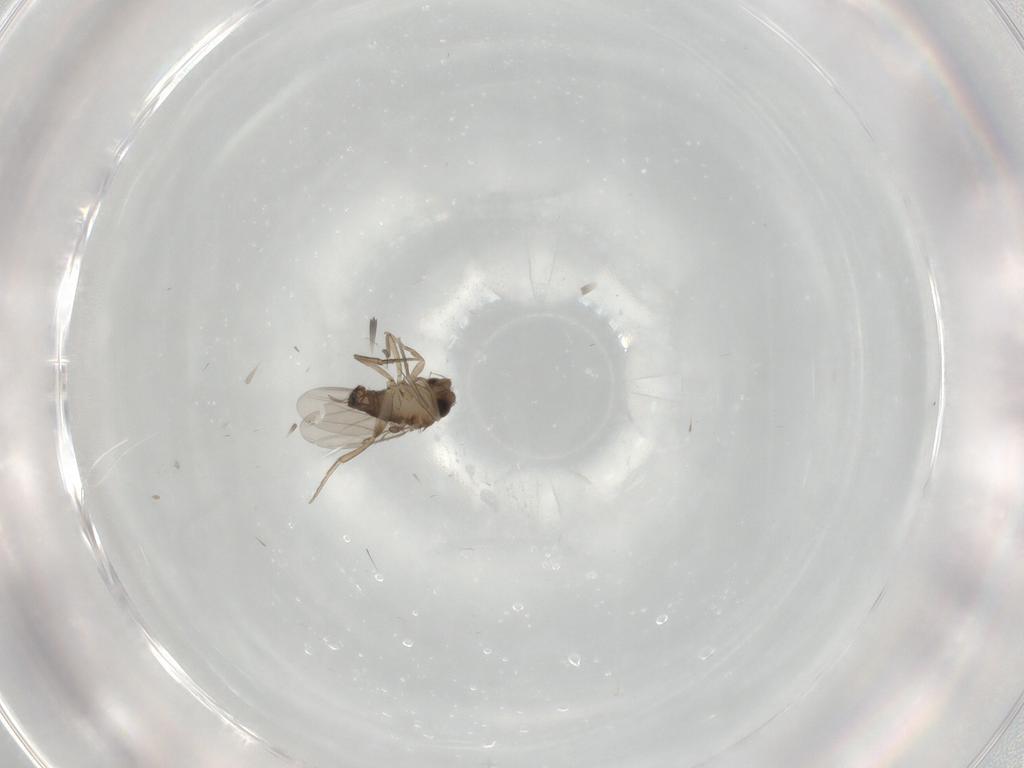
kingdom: Animalia
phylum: Arthropoda
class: Insecta
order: Diptera
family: Phoridae
